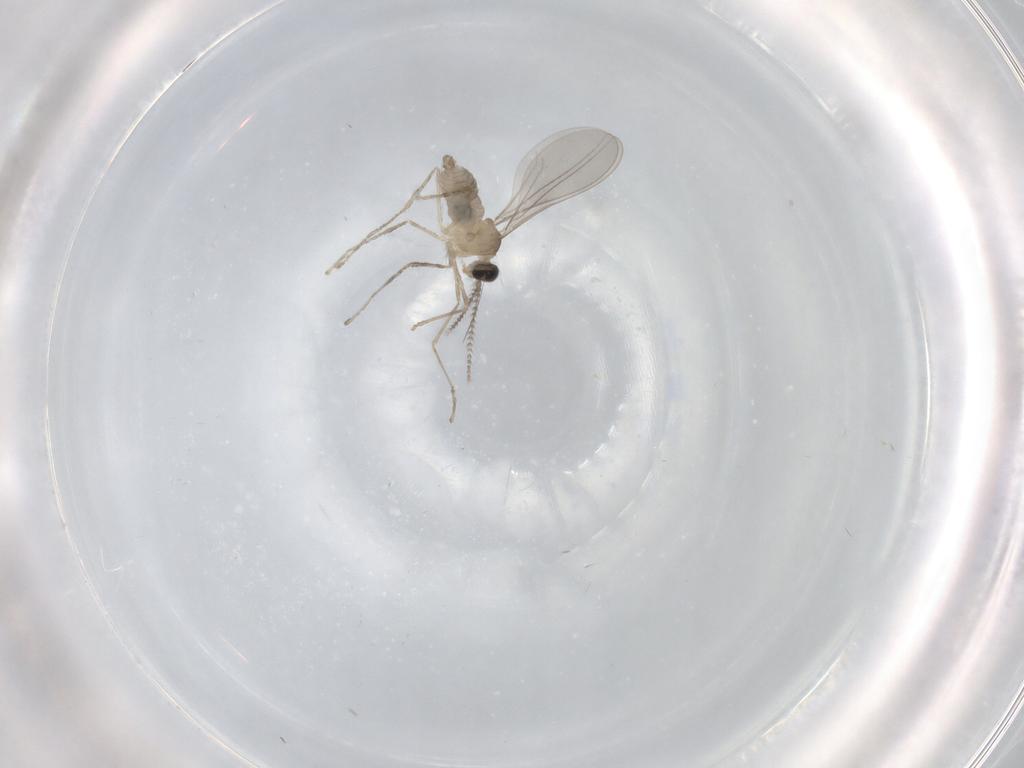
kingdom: Animalia
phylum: Arthropoda
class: Insecta
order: Diptera
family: Cecidomyiidae
